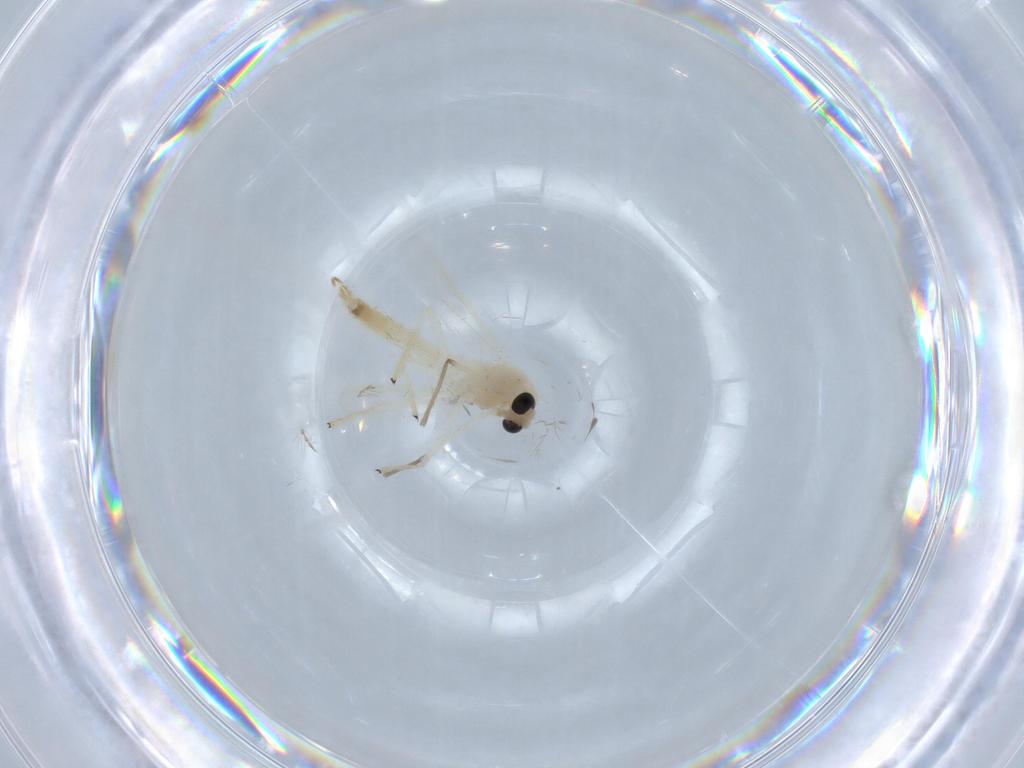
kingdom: Animalia
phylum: Arthropoda
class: Insecta
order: Diptera
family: Chironomidae
